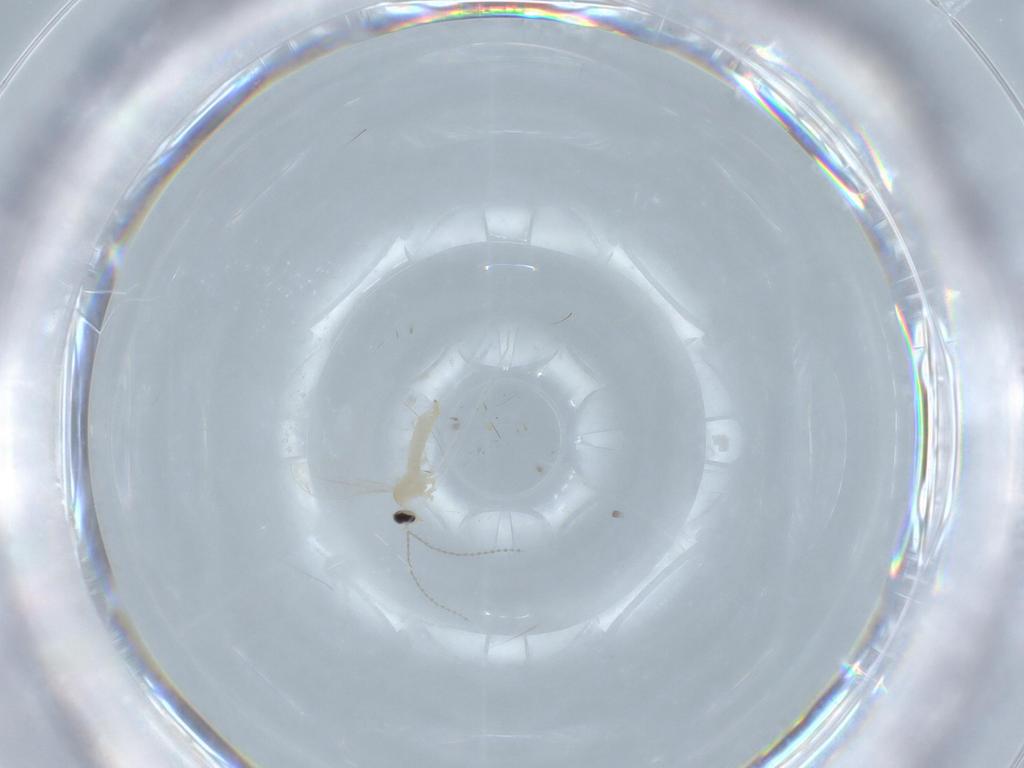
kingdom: Animalia
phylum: Arthropoda
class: Insecta
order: Diptera
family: Cecidomyiidae
